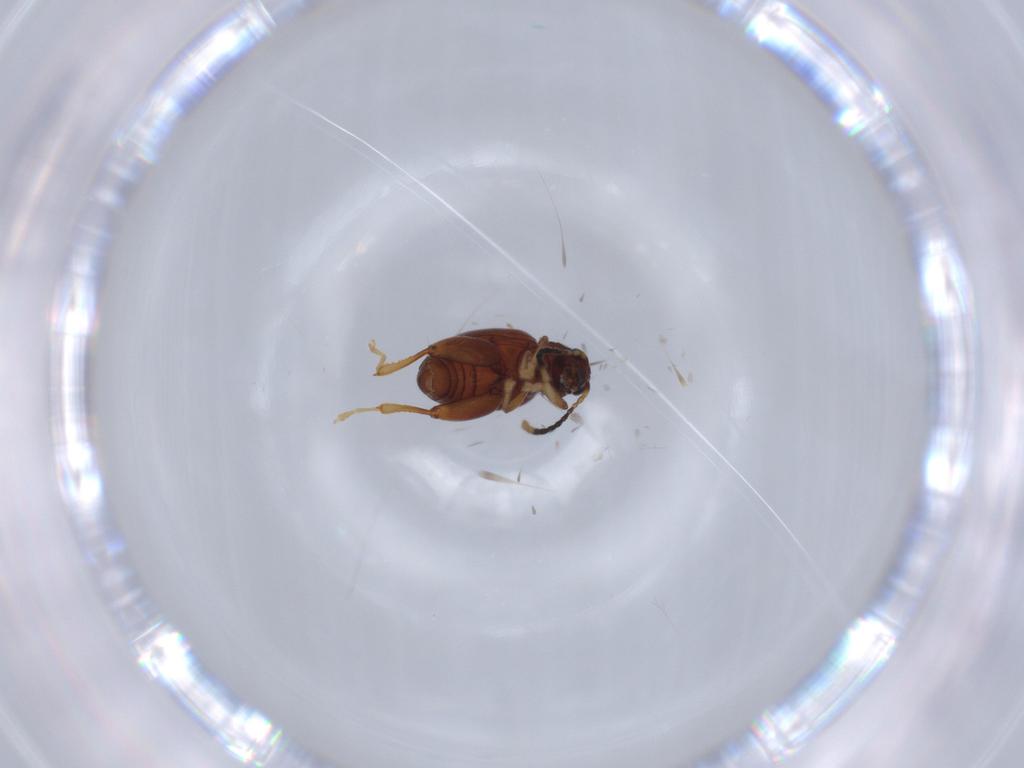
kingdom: Animalia
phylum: Arthropoda
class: Insecta
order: Coleoptera
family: Chrysomelidae
